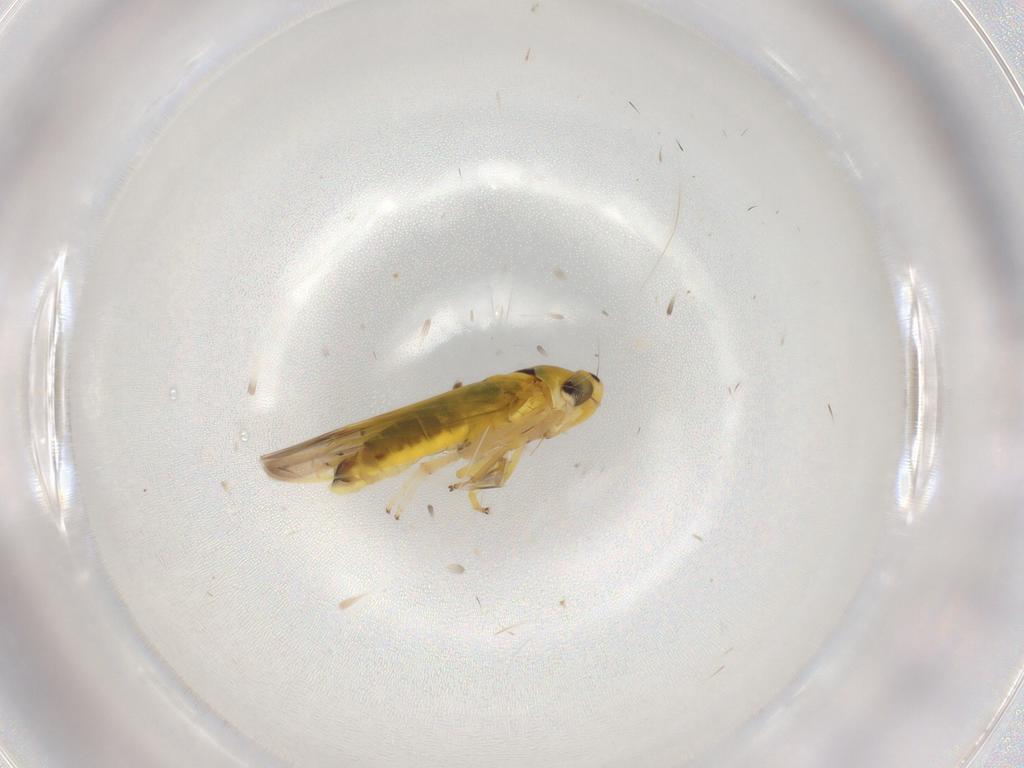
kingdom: Animalia
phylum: Arthropoda
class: Insecta
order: Hemiptera
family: Cicadellidae
